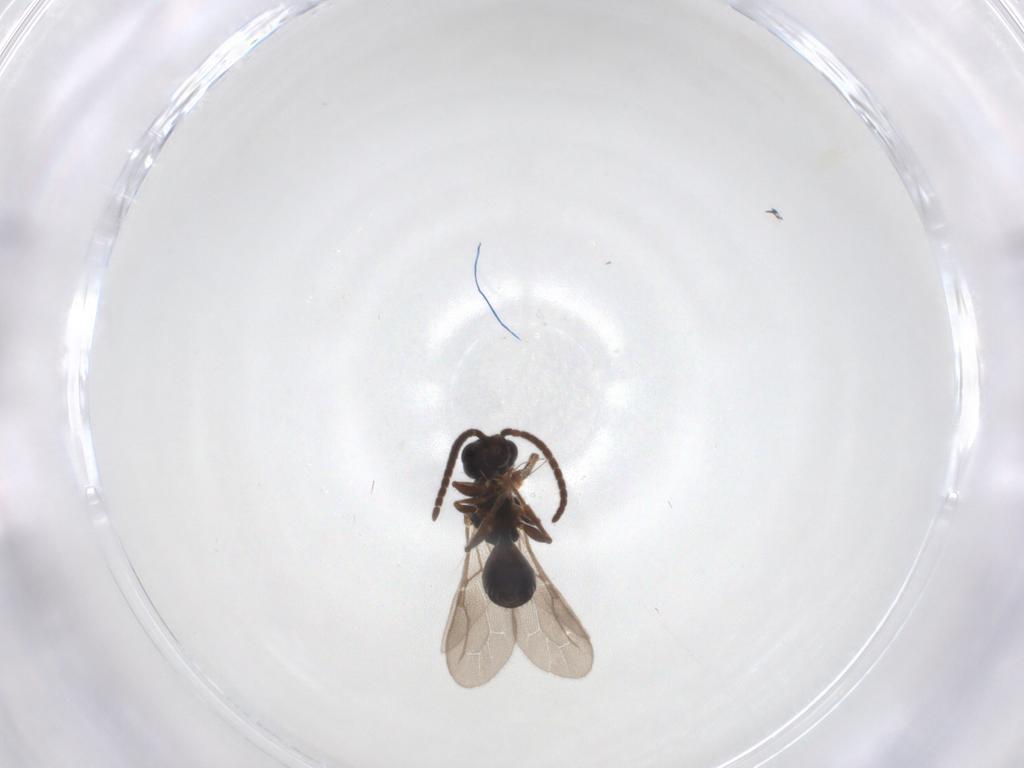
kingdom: Animalia
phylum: Arthropoda
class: Insecta
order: Hymenoptera
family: Bethylidae
